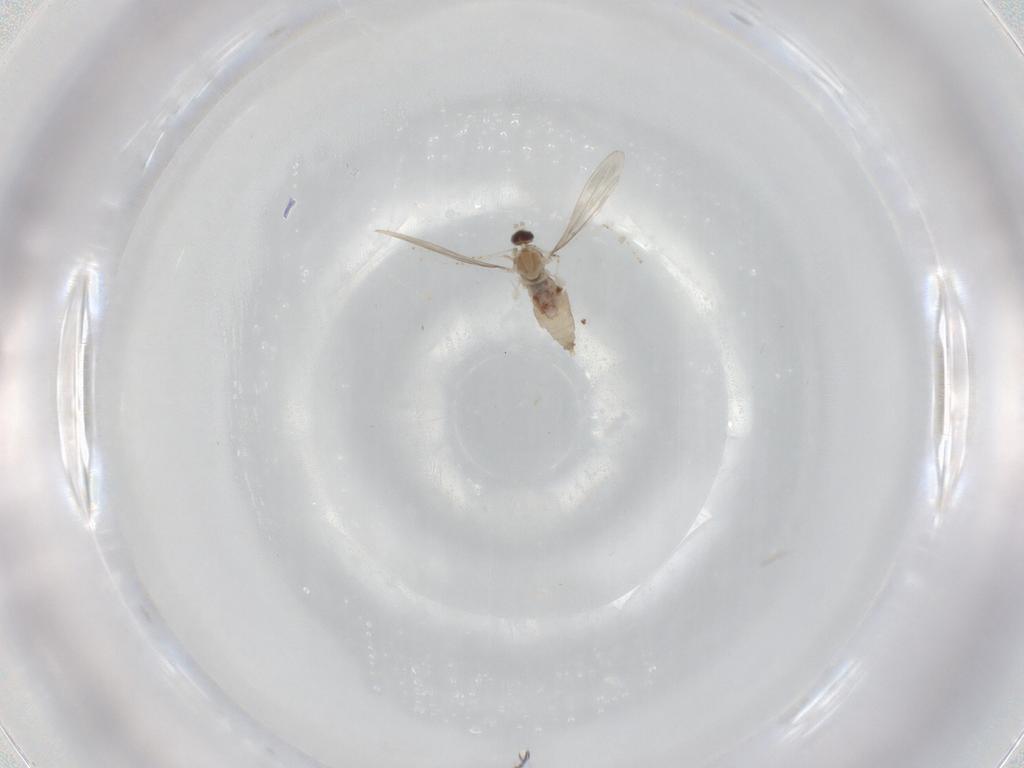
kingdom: Animalia
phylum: Arthropoda
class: Insecta
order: Diptera
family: Cecidomyiidae
